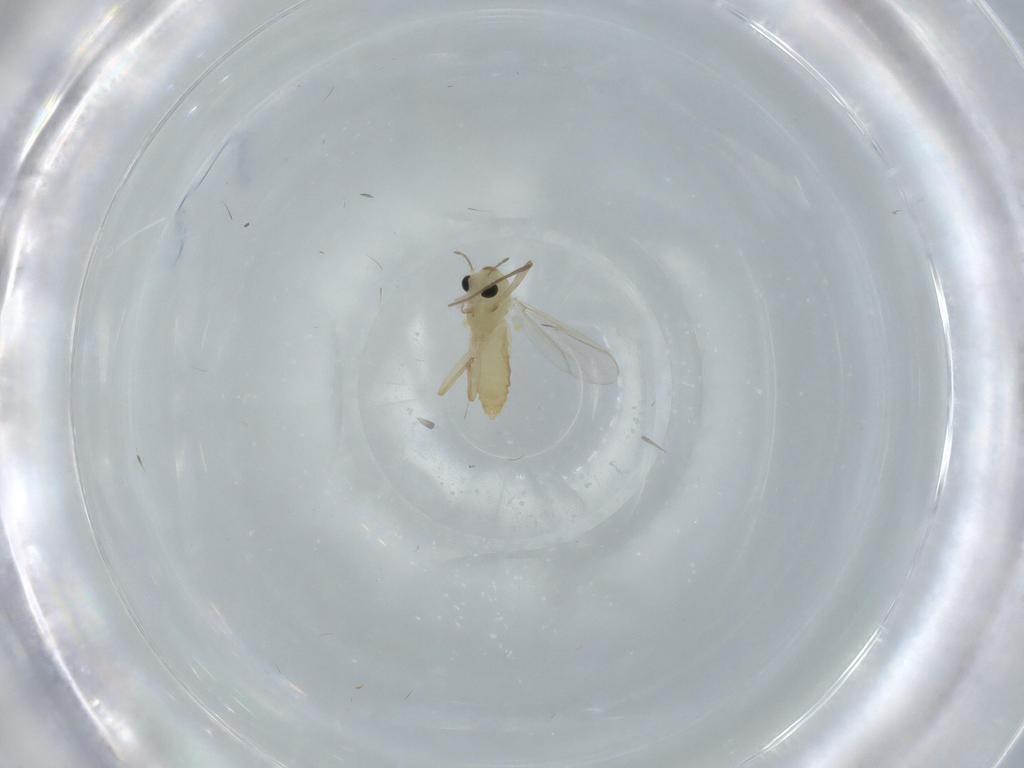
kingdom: Animalia
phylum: Arthropoda
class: Insecta
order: Diptera
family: Chironomidae
